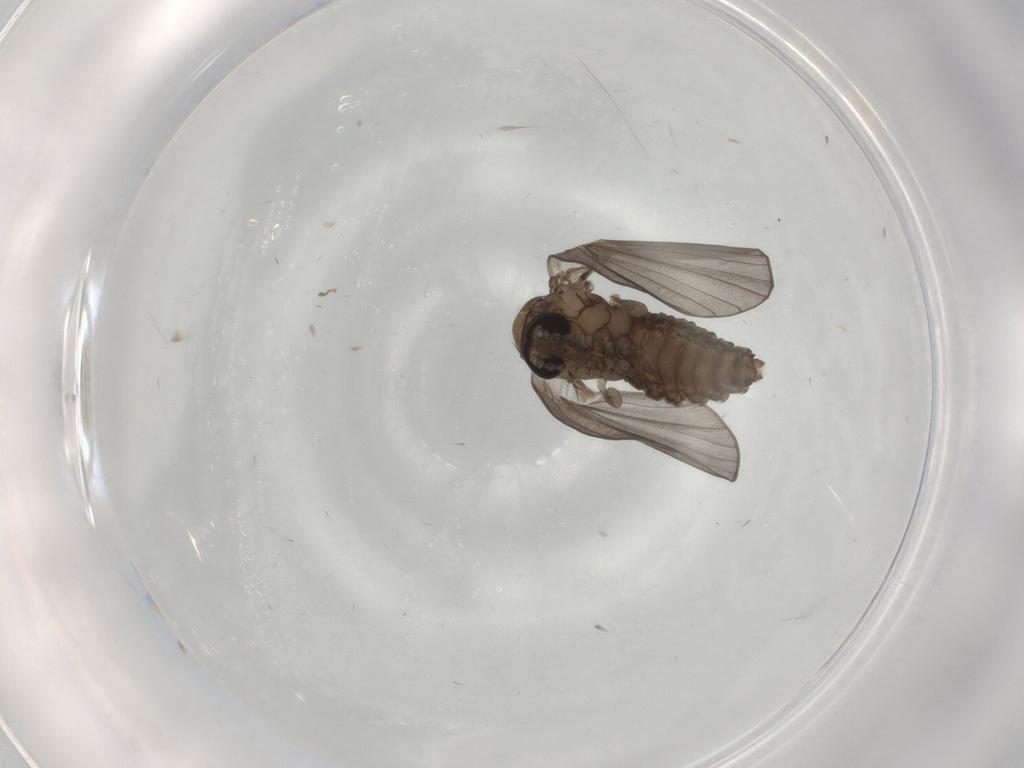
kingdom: Animalia
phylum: Arthropoda
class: Insecta
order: Diptera
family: Psychodidae
